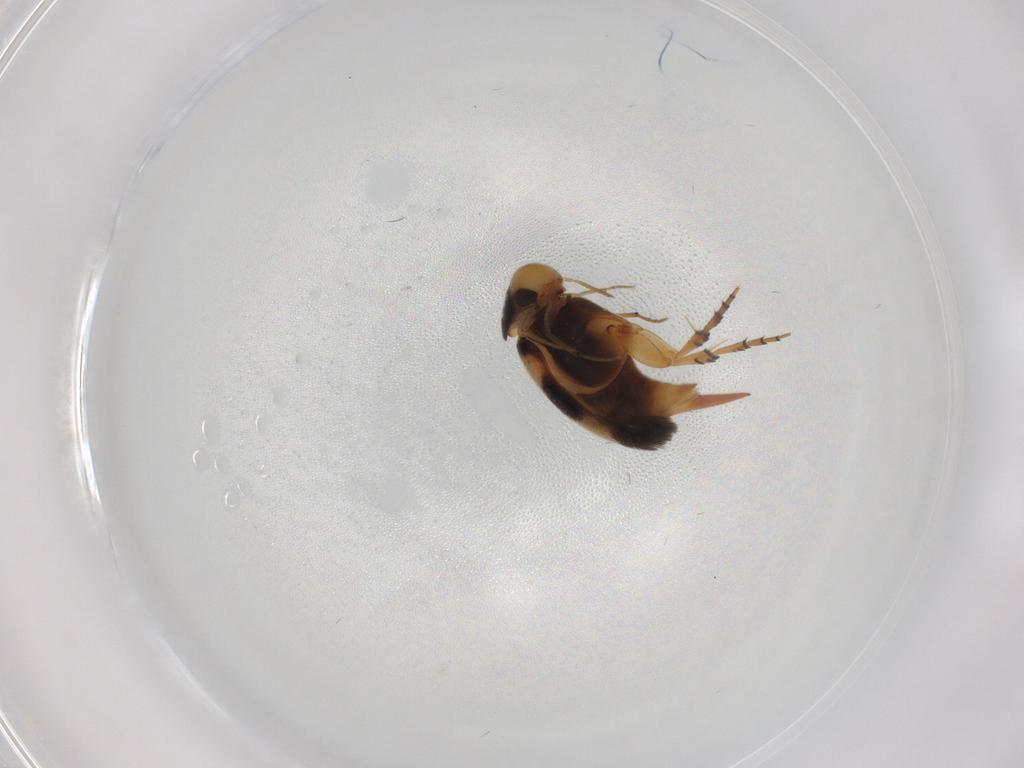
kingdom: Animalia
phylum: Arthropoda
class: Insecta
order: Coleoptera
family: Mordellidae
